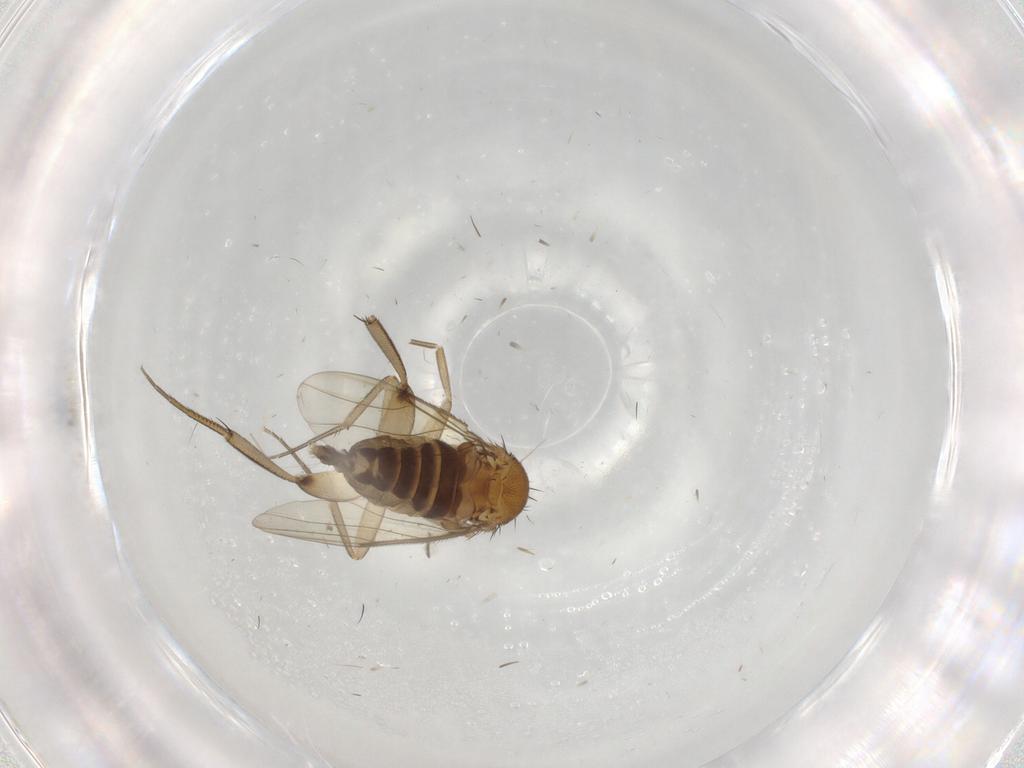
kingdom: Animalia
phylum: Arthropoda
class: Insecta
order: Diptera
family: Phoridae
